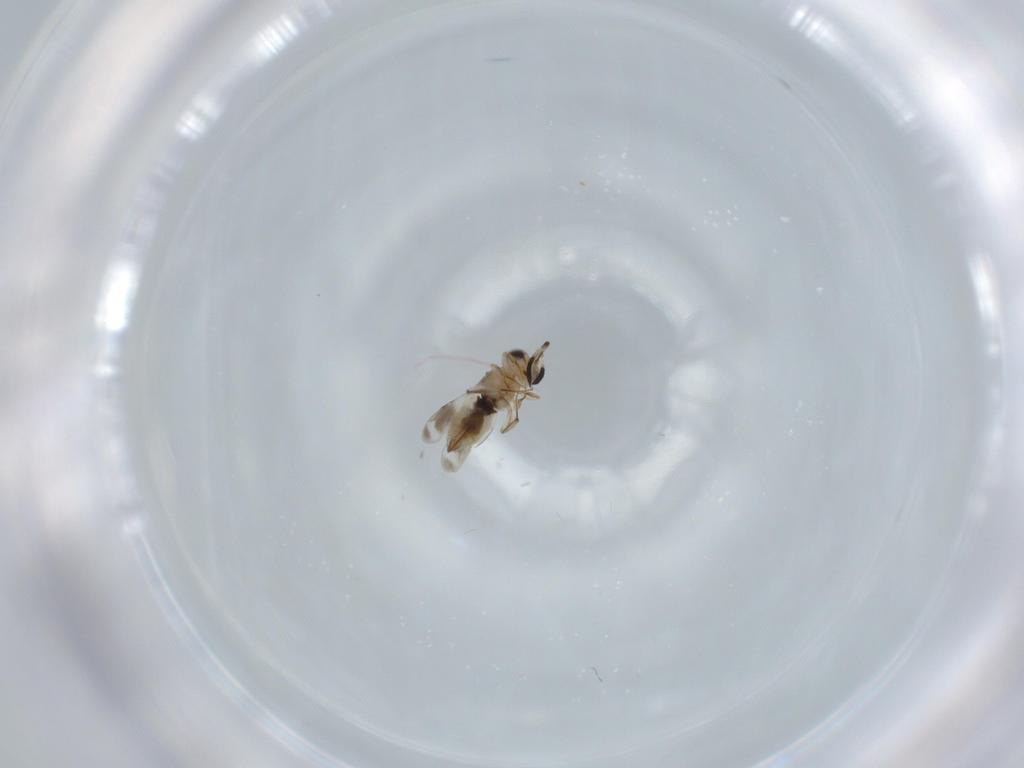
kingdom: Animalia
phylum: Arthropoda
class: Insecta
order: Hymenoptera
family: Scelionidae
